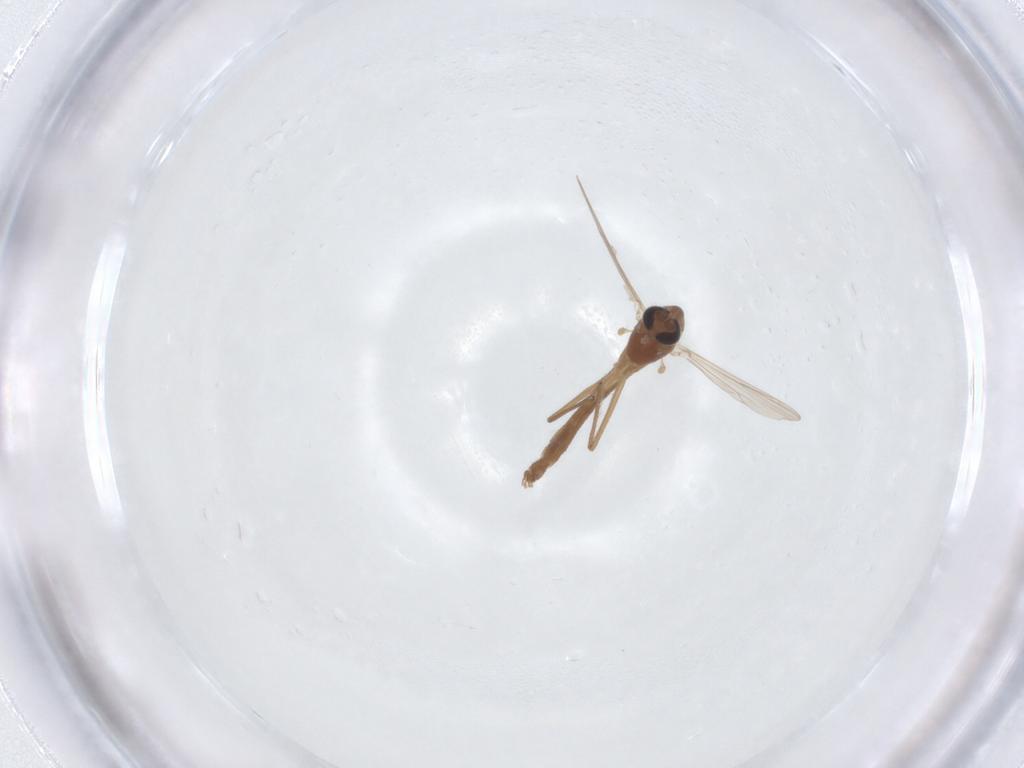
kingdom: Animalia
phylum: Arthropoda
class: Insecta
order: Diptera
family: Chironomidae
